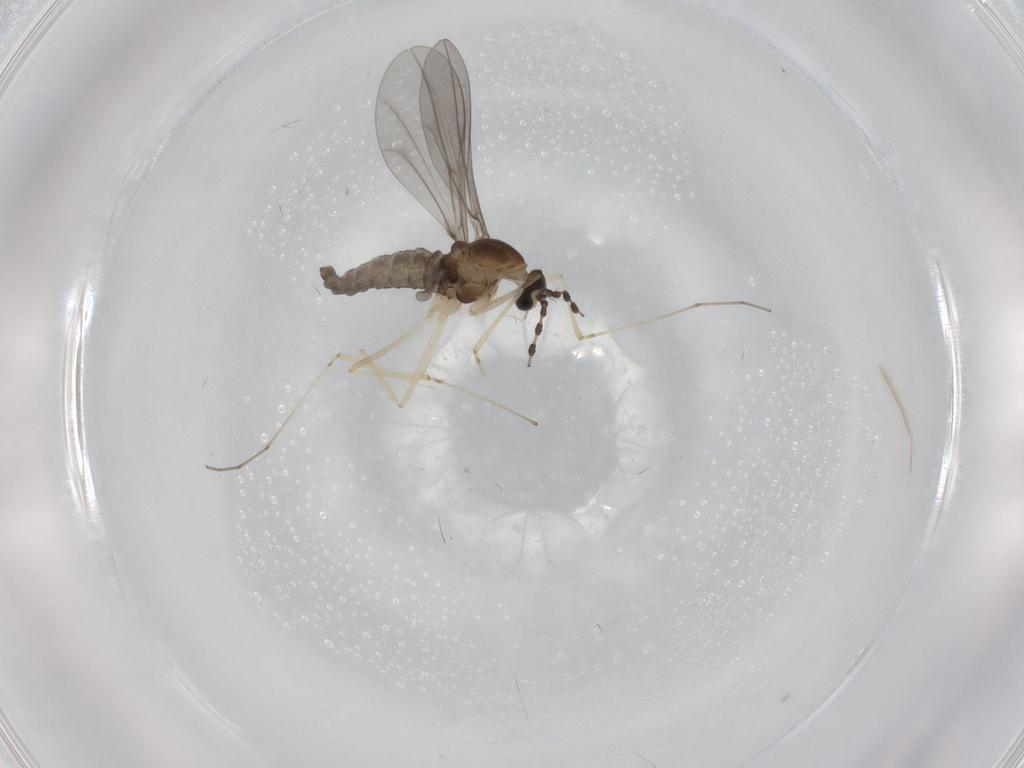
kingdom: Animalia
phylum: Arthropoda
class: Insecta
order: Diptera
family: Cecidomyiidae
